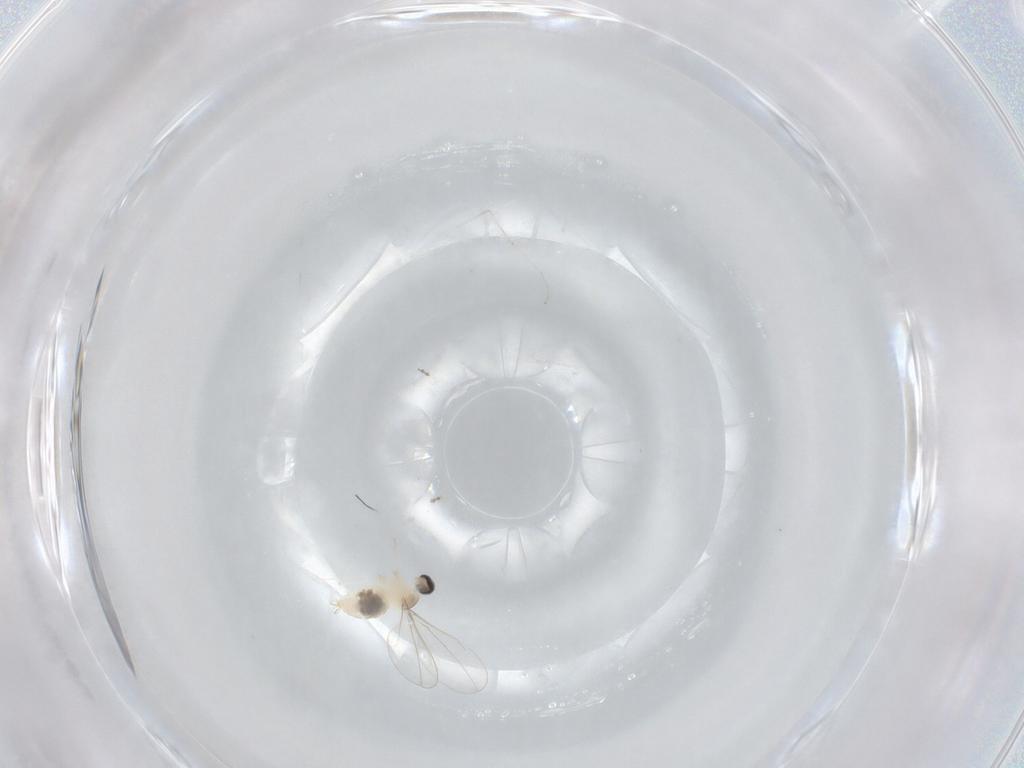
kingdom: Animalia
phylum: Arthropoda
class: Insecta
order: Diptera
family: Cecidomyiidae
